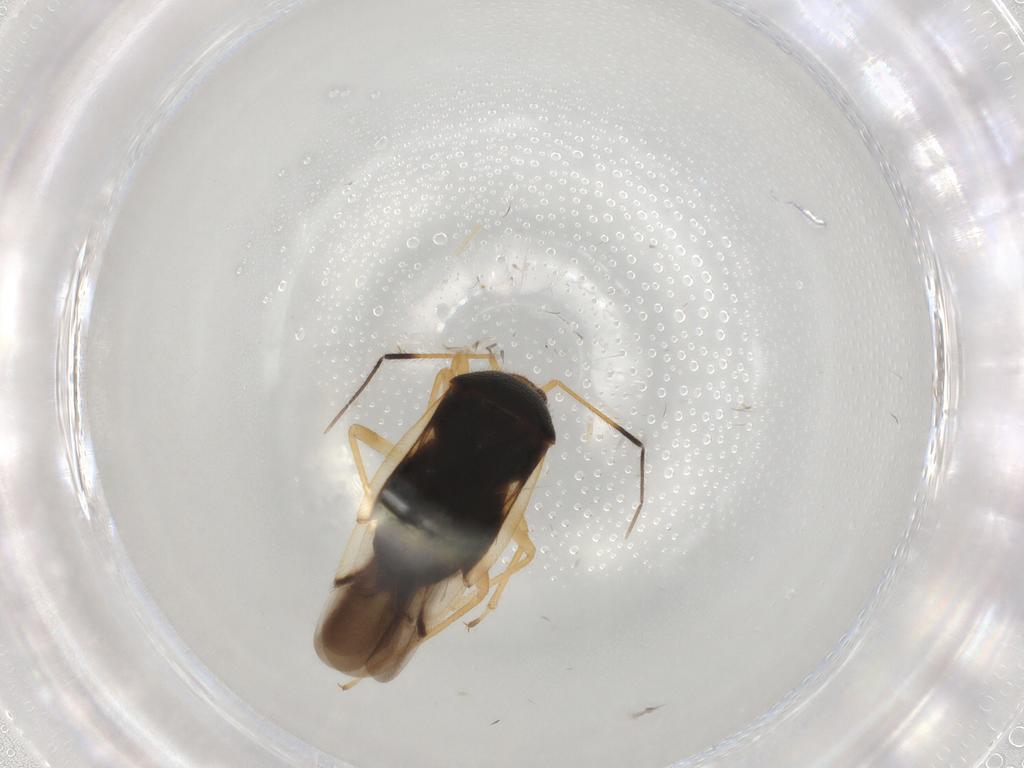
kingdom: Animalia
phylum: Arthropoda
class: Insecta
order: Hemiptera
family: Miridae
